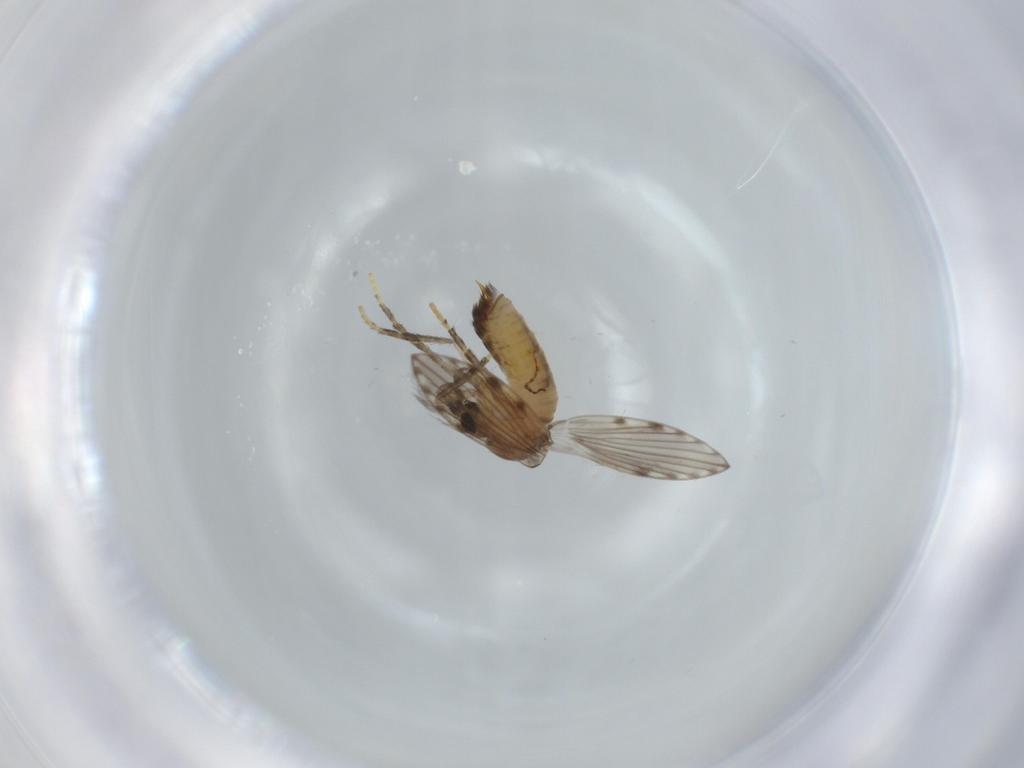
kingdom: Animalia
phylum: Arthropoda
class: Insecta
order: Diptera
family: Psychodidae
